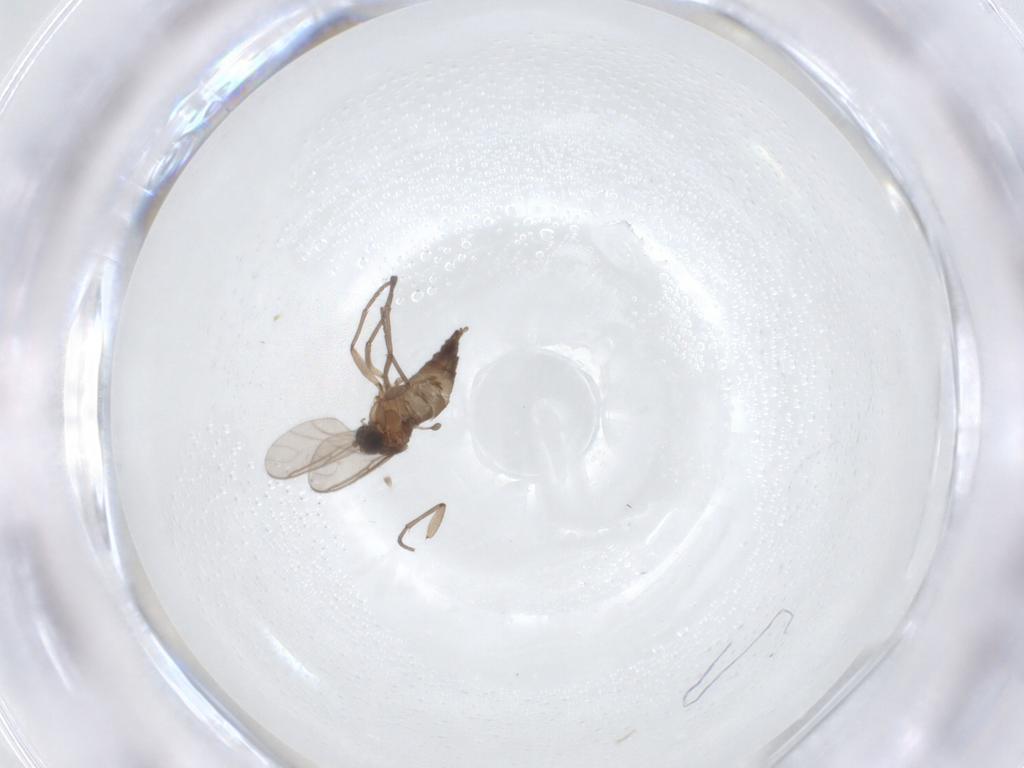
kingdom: Animalia
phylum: Arthropoda
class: Insecta
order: Diptera
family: Sciaridae
